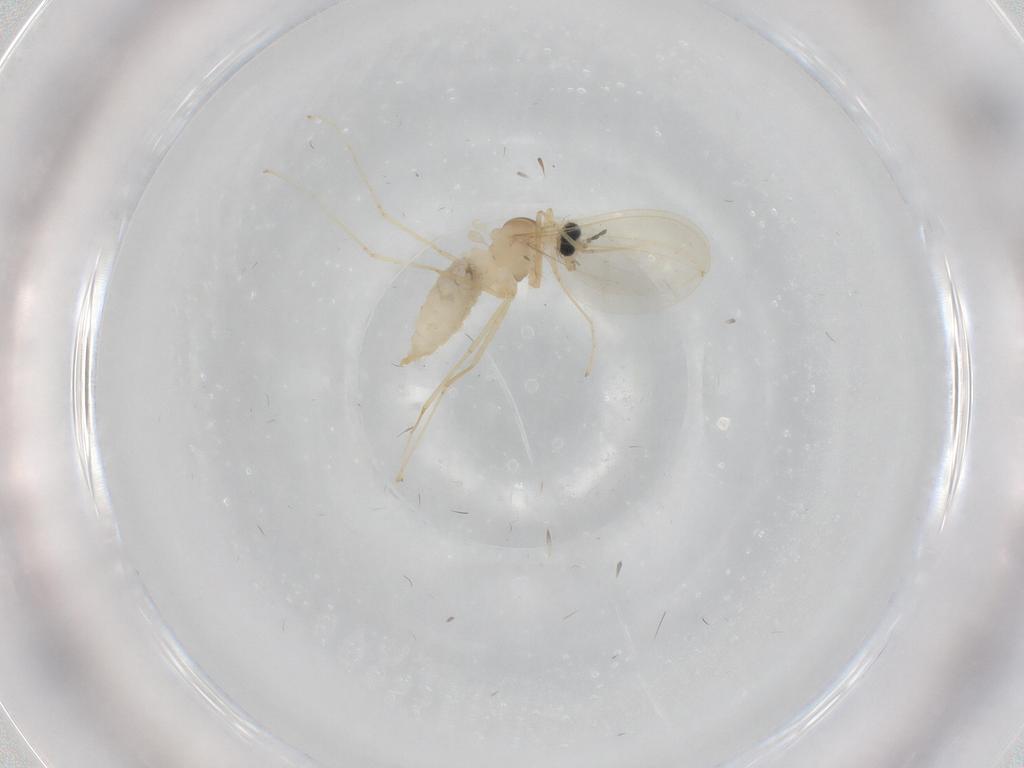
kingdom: Animalia
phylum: Arthropoda
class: Insecta
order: Diptera
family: Cecidomyiidae
